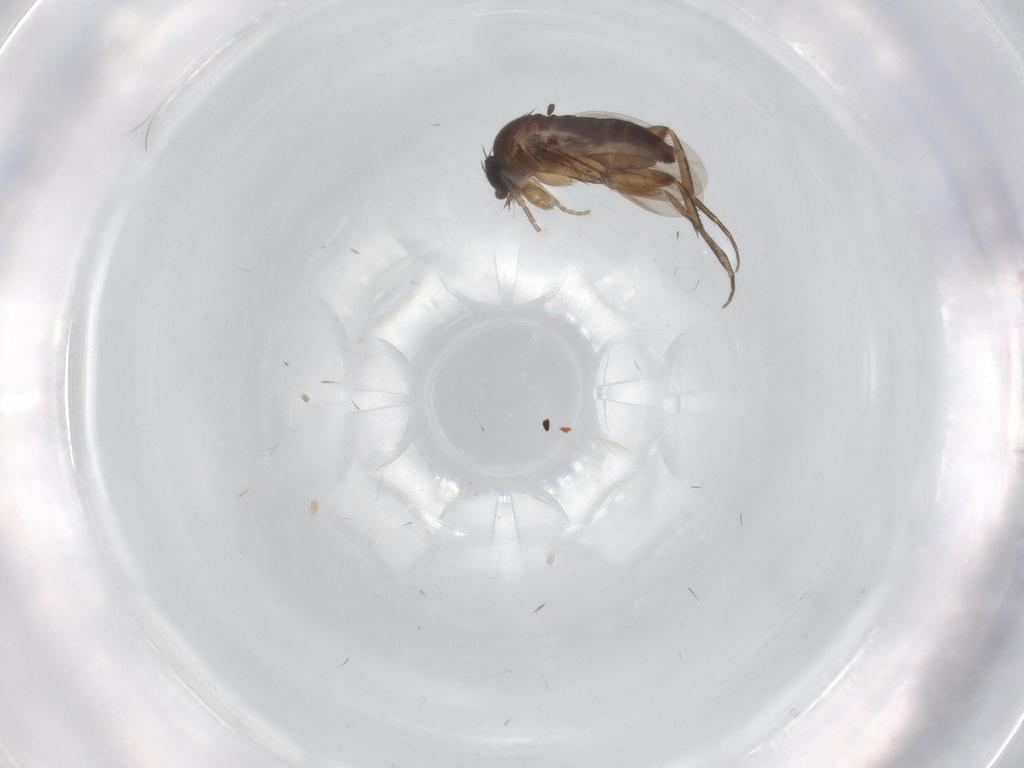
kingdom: Animalia
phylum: Arthropoda
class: Insecta
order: Diptera
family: Phoridae
